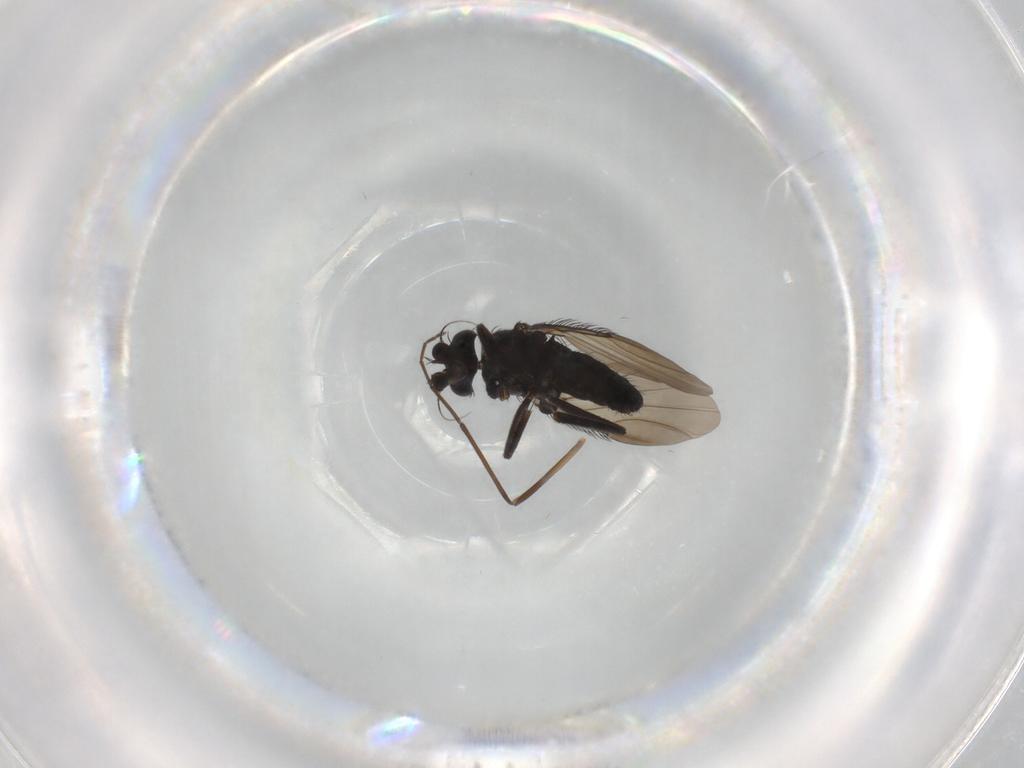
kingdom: Animalia
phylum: Arthropoda
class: Insecta
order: Diptera
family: Phoridae
